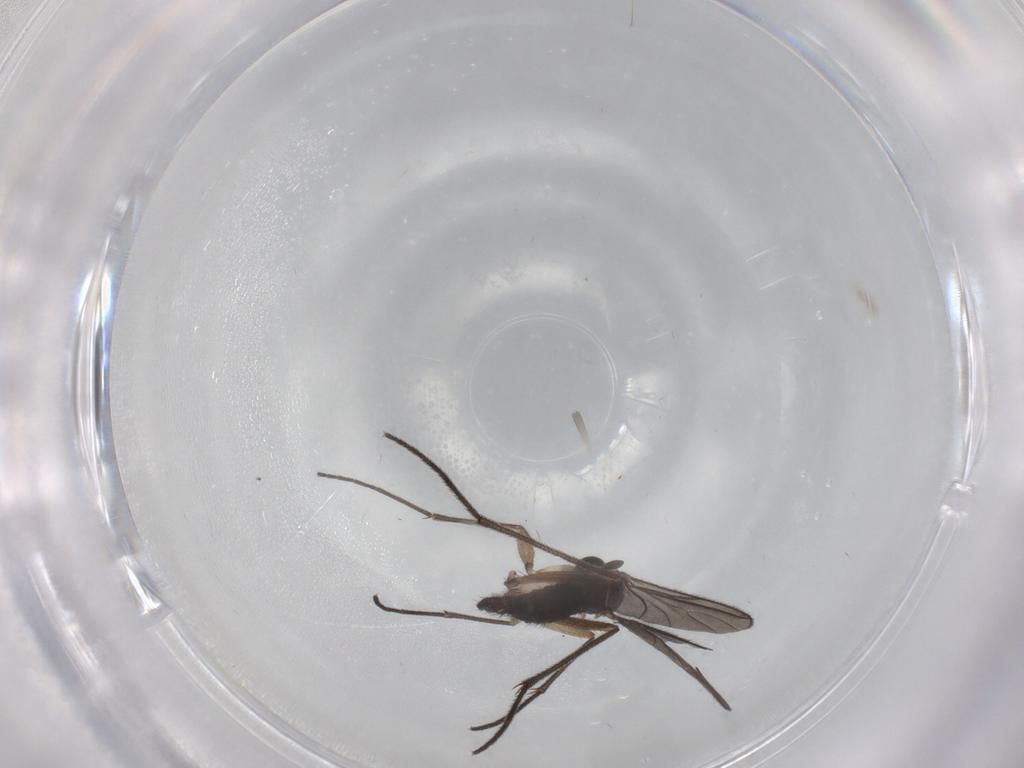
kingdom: Animalia
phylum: Arthropoda
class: Insecta
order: Diptera
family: Sciaridae
